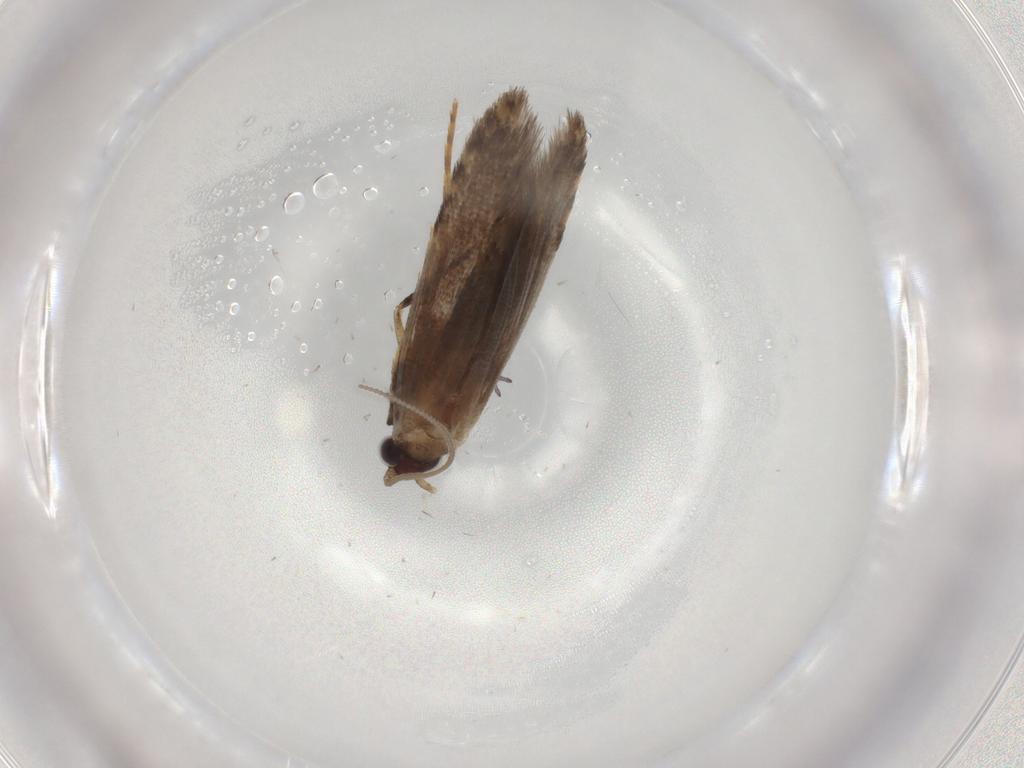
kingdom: Animalia
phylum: Arthropoda
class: Insecta
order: Lepidoptera
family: Tineidae
